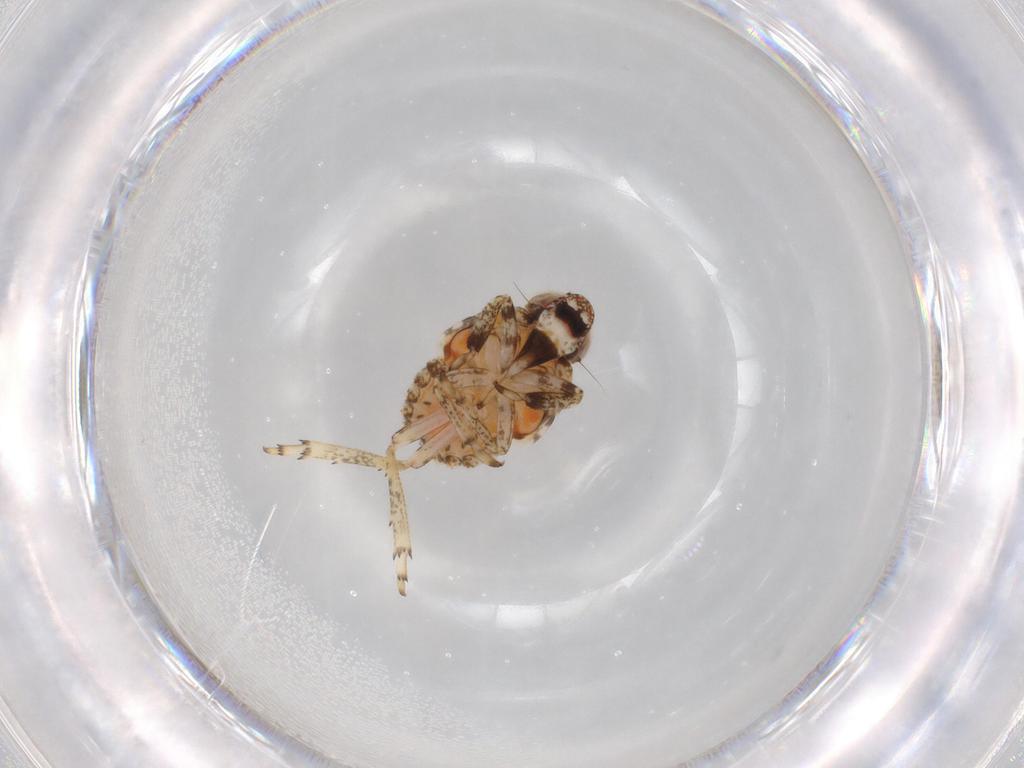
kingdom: Animalia
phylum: Arthropoda
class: Insecta
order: Hemiptera
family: Issidae
